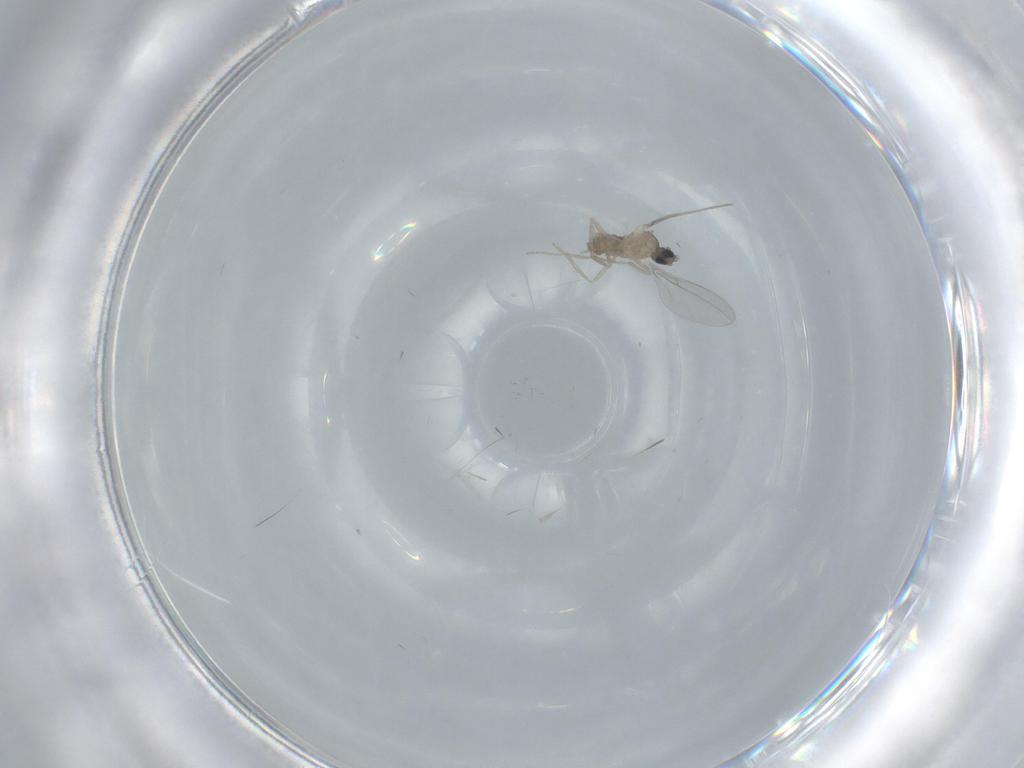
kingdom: Animalia
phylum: Arthropoda
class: Insecta
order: Diptera
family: Cecidomyiidae
